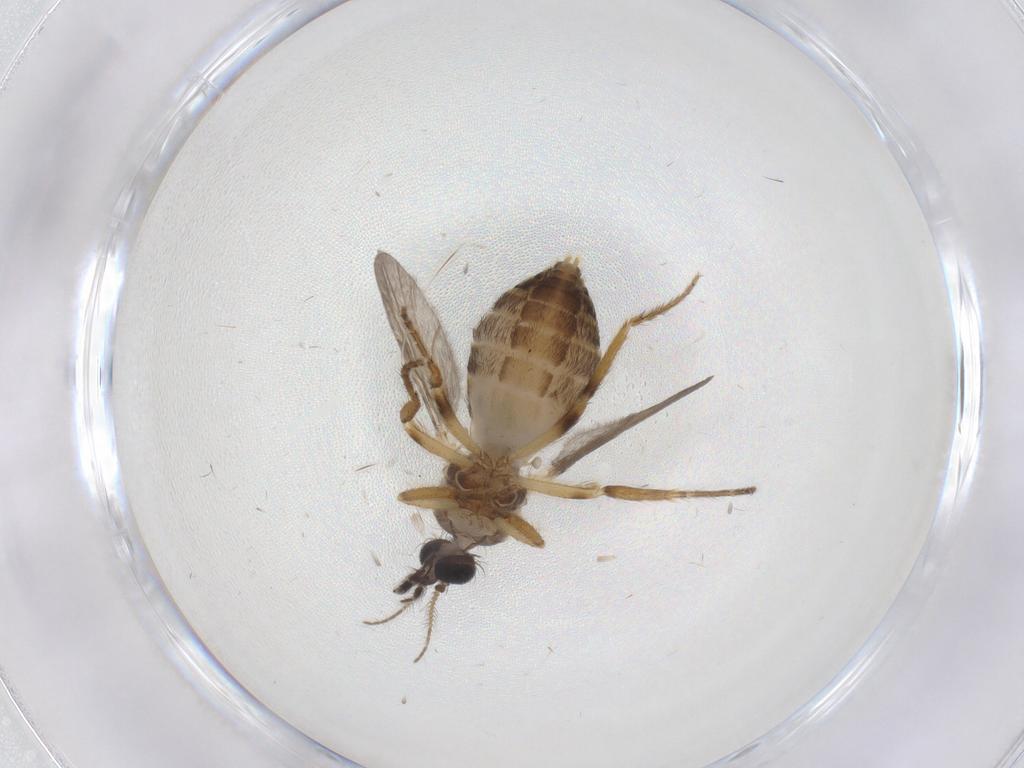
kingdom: Animalia
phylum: Arthropoda
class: Insecta
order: Diptera
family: Ceratopogonidae
